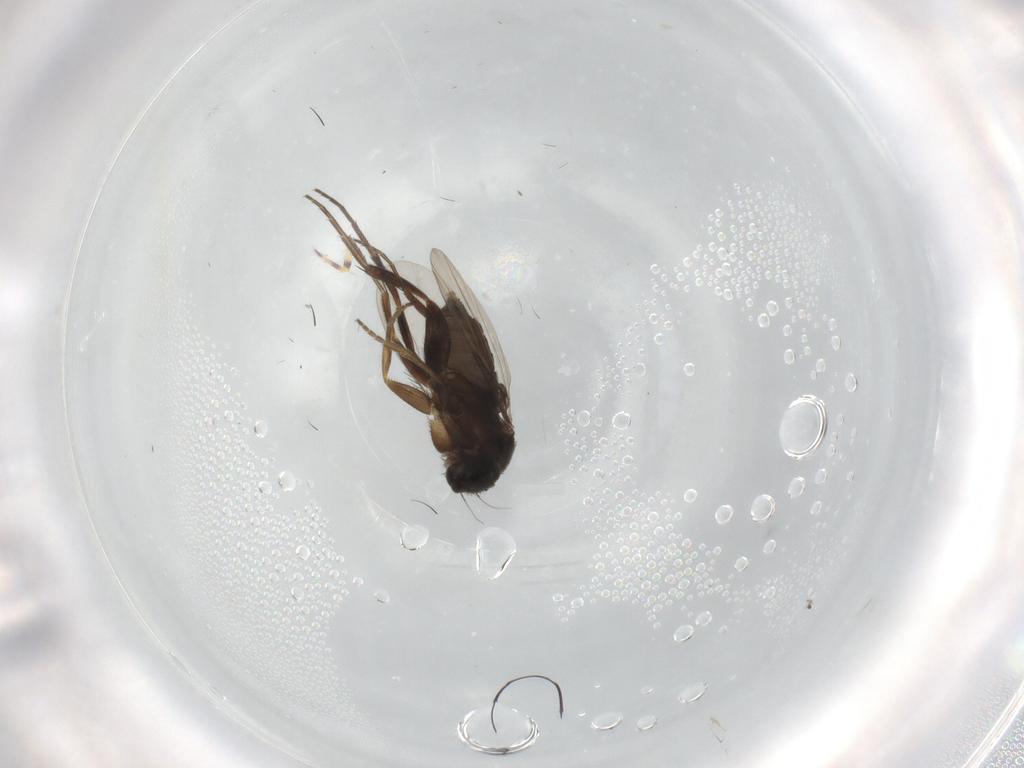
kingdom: Animalia
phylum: Arthropoda
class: Insecta
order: Diptera
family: Phoridae
